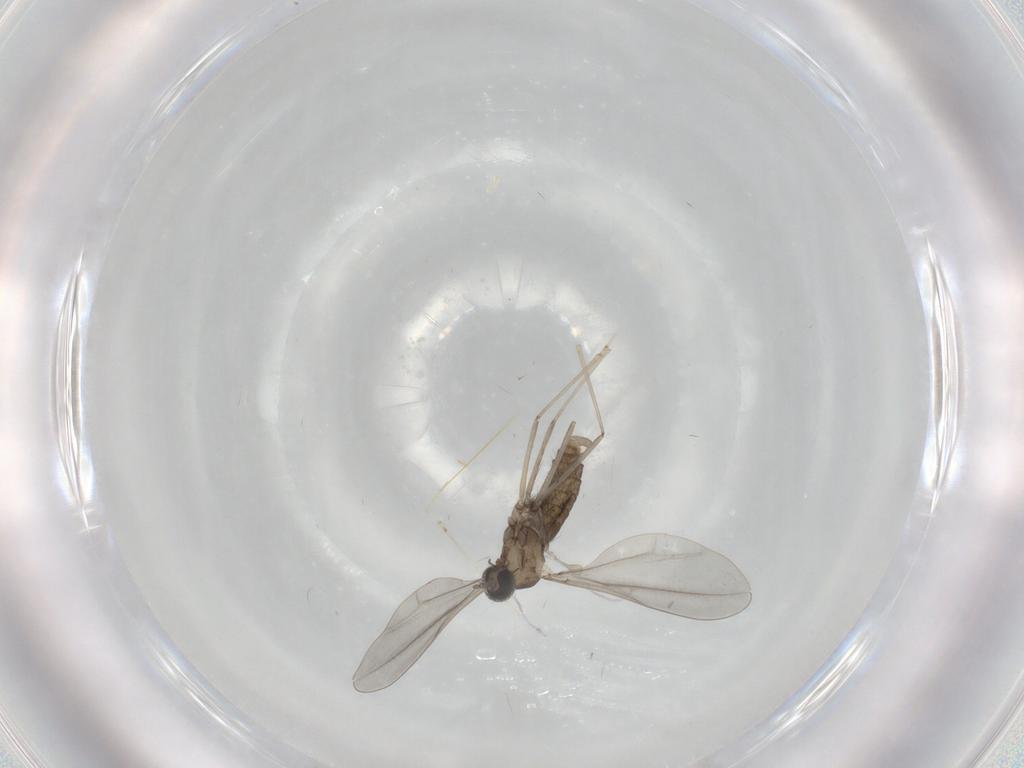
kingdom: Animalia
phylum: Arthropoda
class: Insecta
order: Diptera
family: Cecidomyiidae
